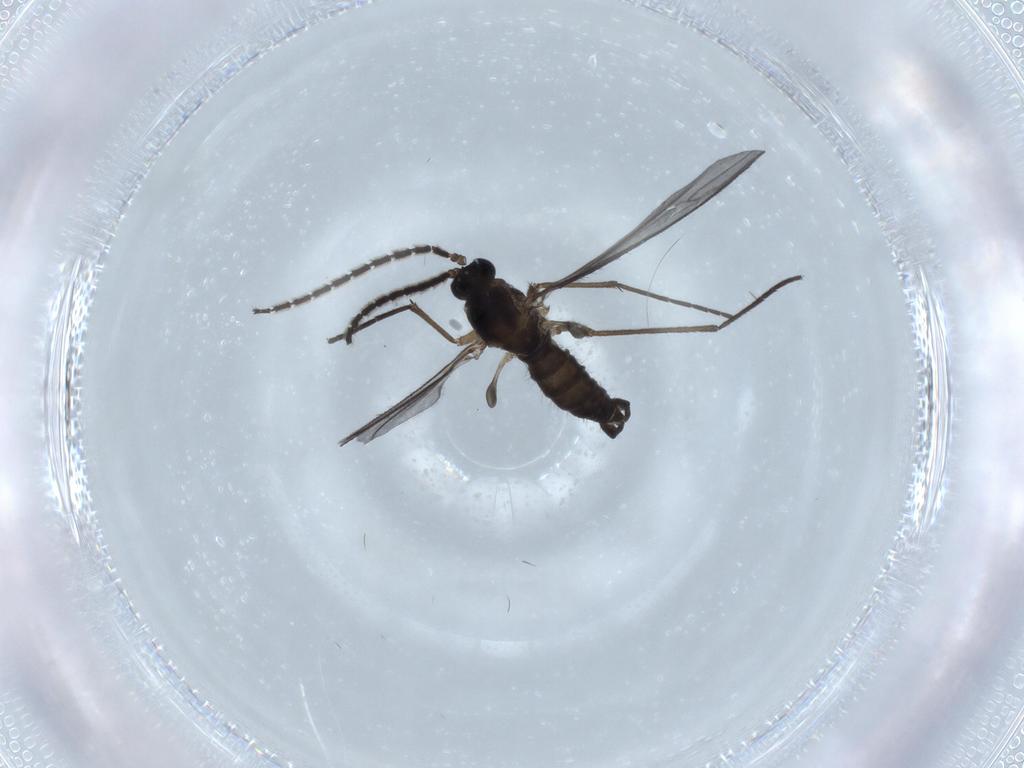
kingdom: Animalia
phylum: Arthropoda
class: Insecta
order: Diptera
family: Sciaridae
